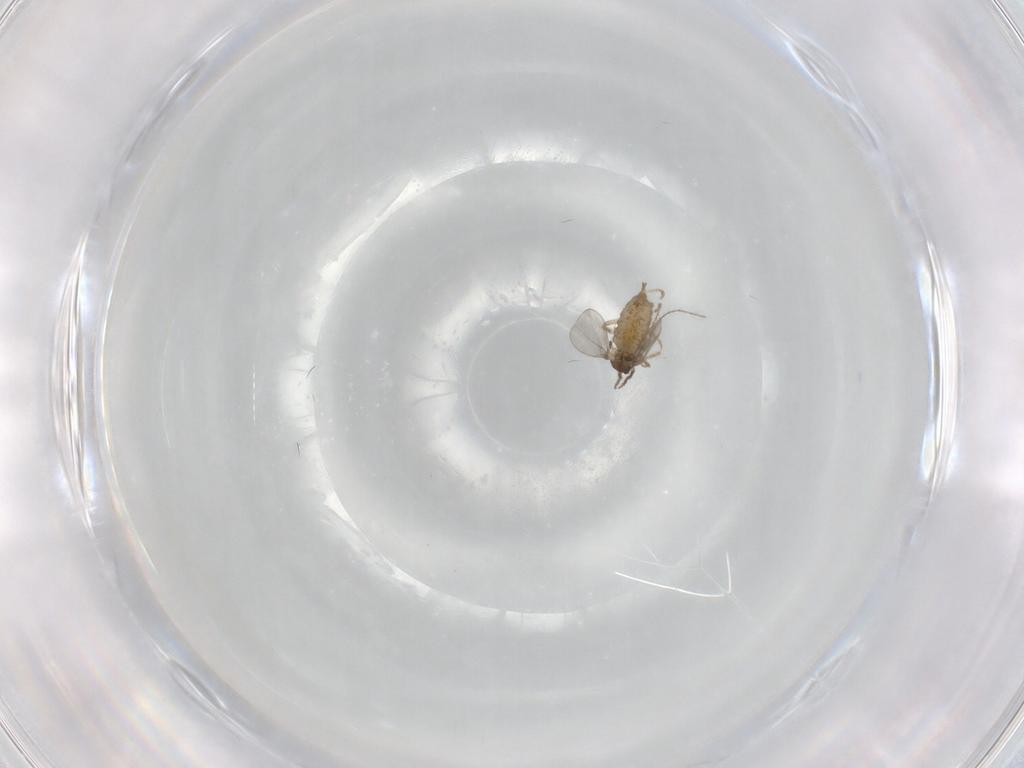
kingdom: Animalia
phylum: Arthropoda
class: Insecta
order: Diptera
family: Cecidomyiidae
